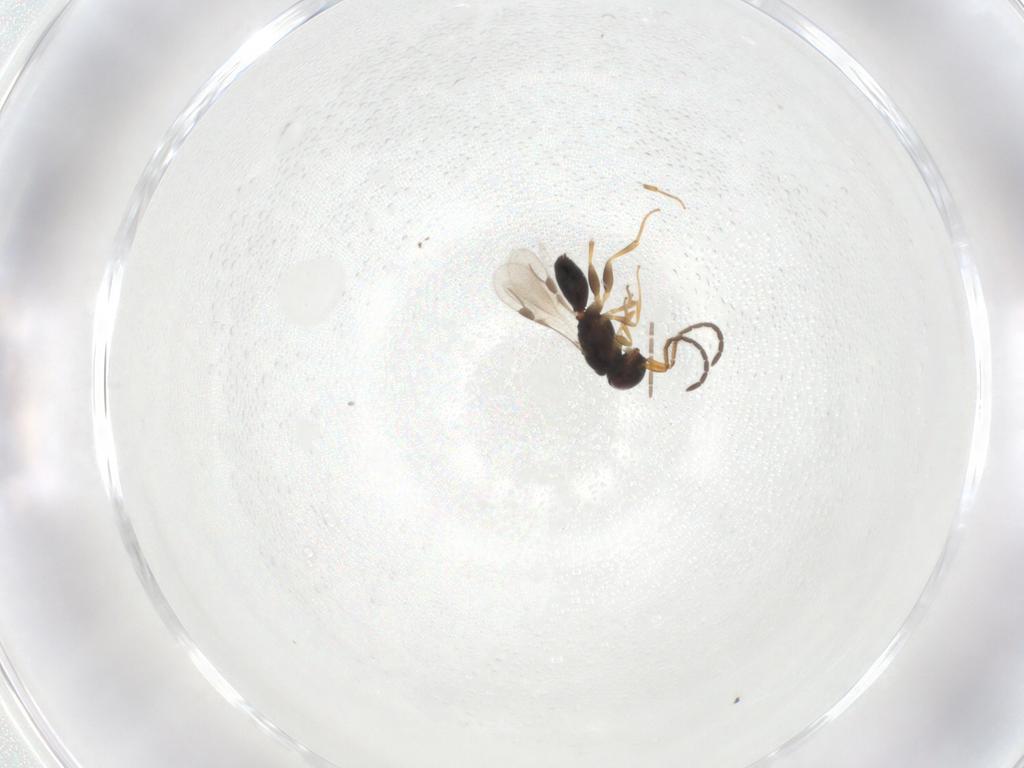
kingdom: Animalia
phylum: Arthropoda
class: Insecta
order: Hymenoptera
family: Megaspilidae
